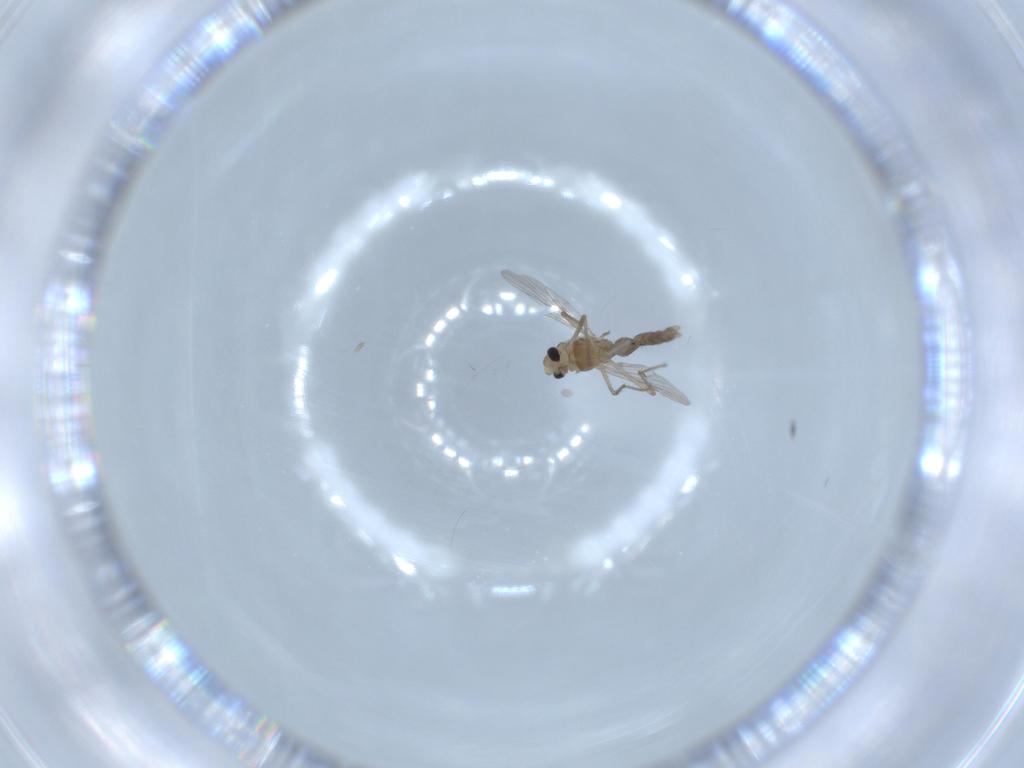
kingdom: Animalia
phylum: Arthropoda
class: Insecta
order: Diptera
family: Chironomidae
